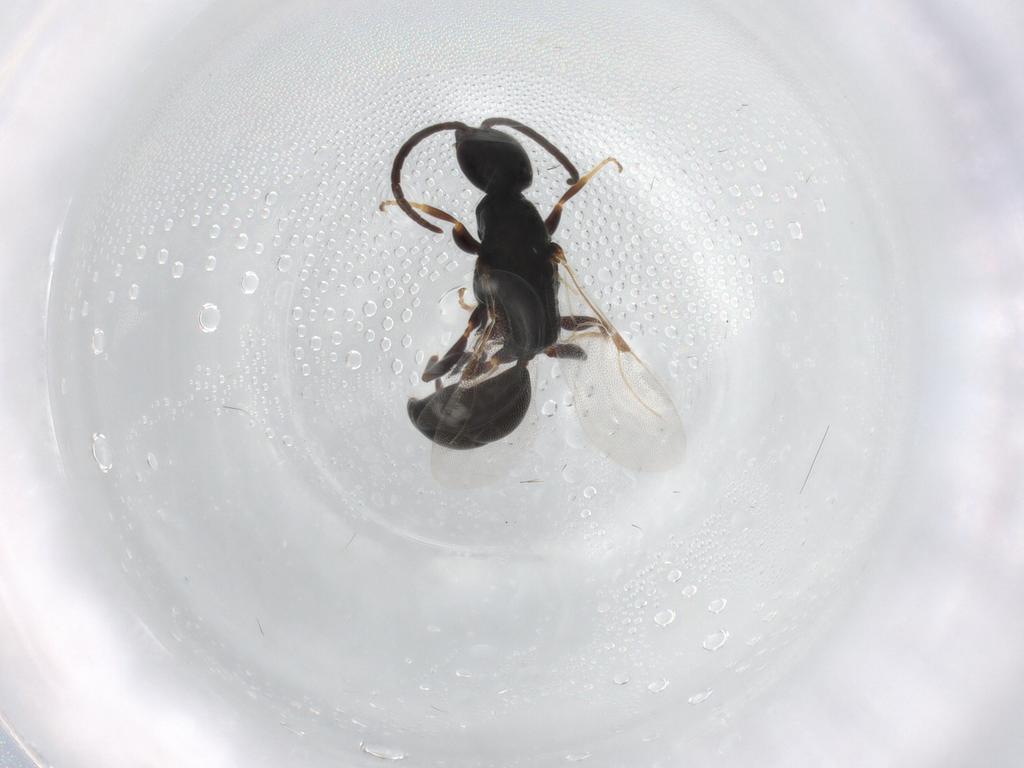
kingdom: Animalia
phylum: Arthropoda
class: Insecta
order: Hymenoptera
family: Bethylidae
